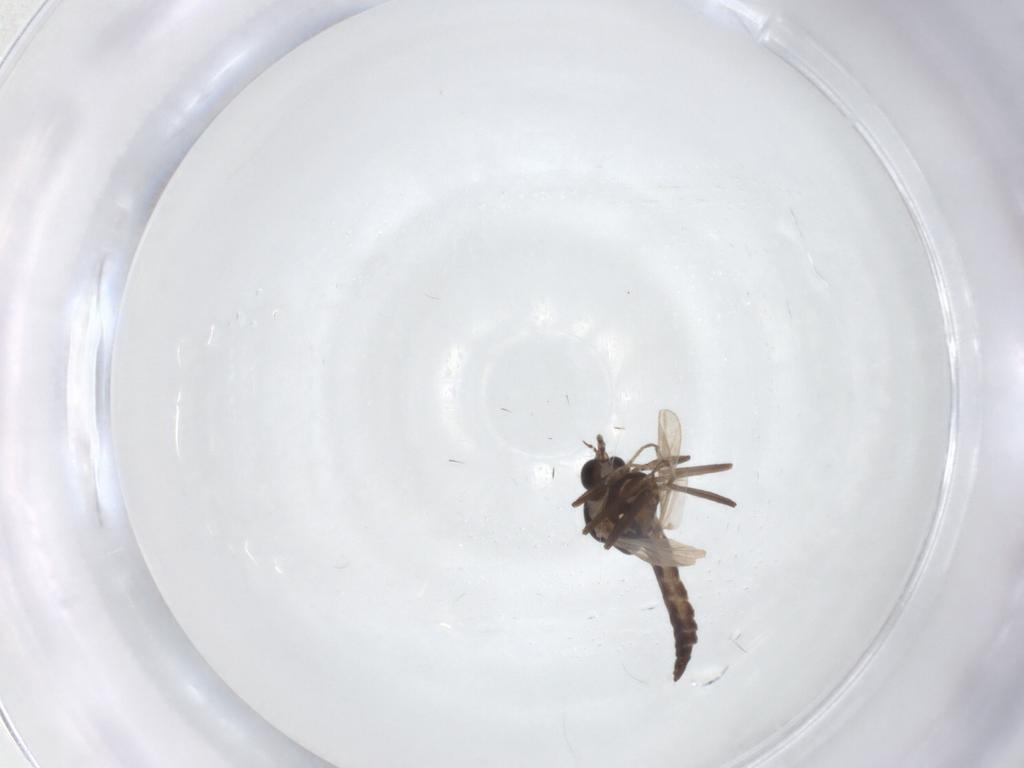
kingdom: Animalia
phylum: Arthropoda
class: Insecta
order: Diptera
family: Ceratopogonidae
